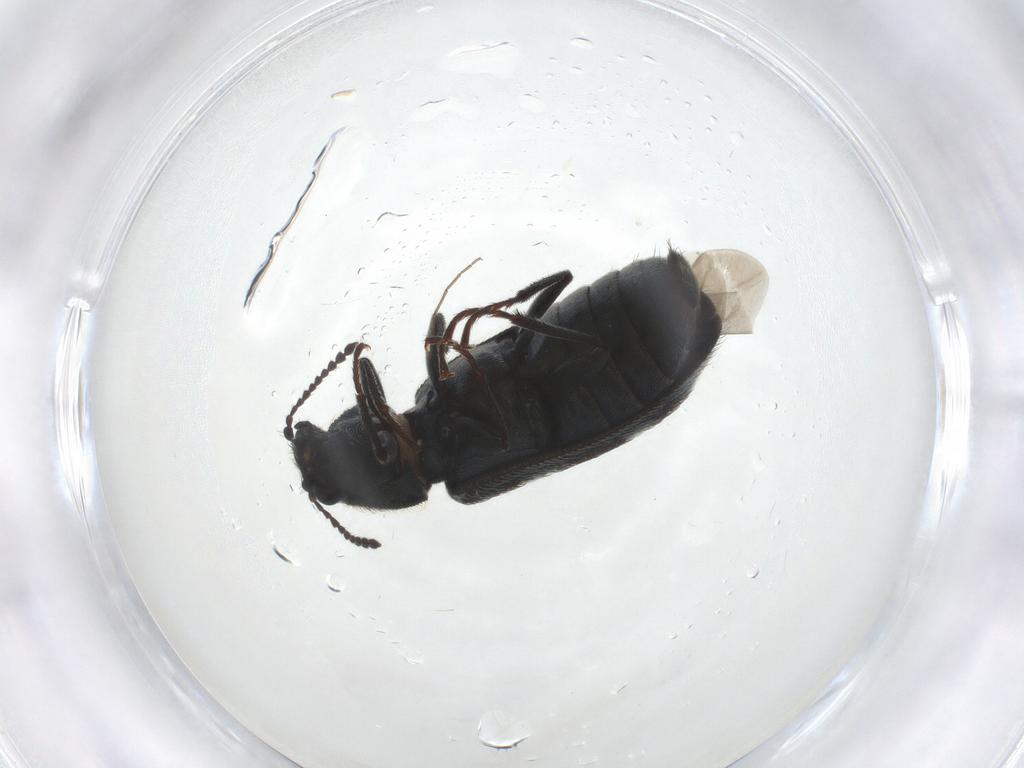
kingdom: Animalia
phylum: Arthropoda
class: Insecta
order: Coleoptera
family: Melyridae
